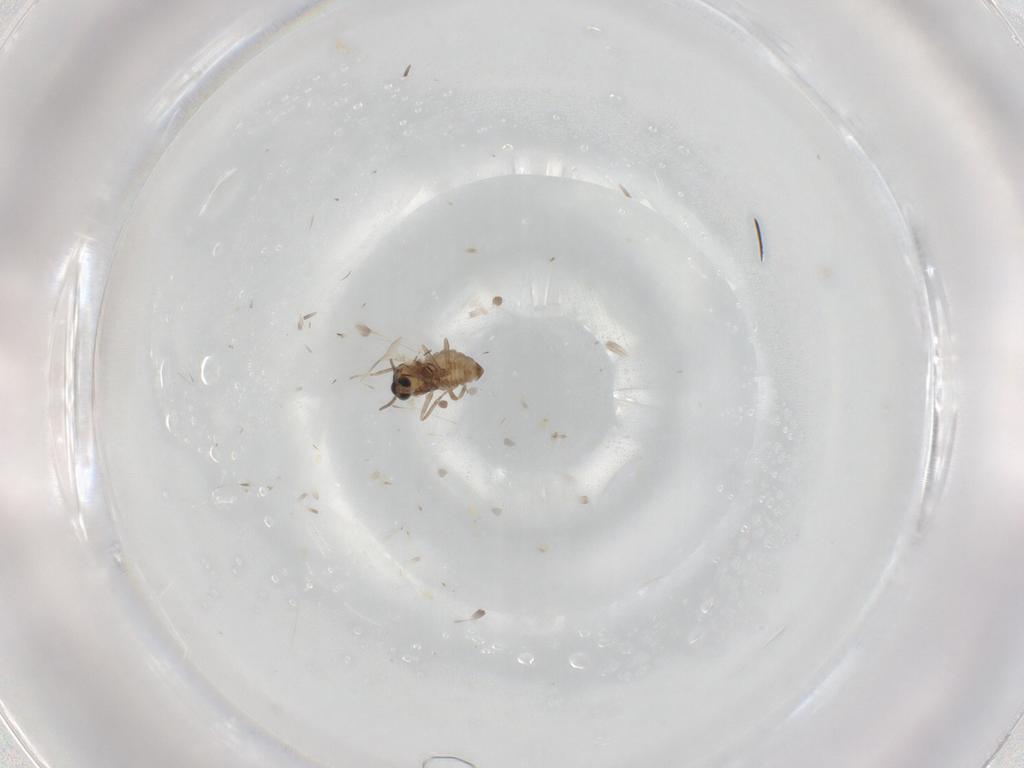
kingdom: Animalia
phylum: Arthropoda
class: Insecta
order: Diptera
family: Cecidomyiidae
